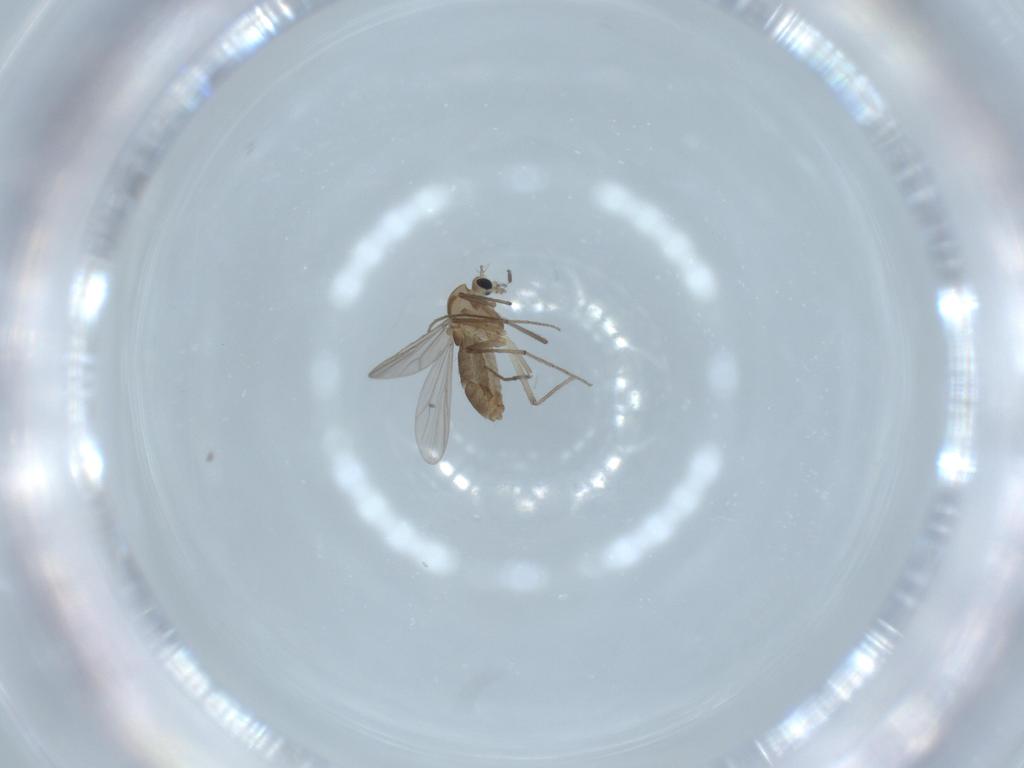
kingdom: Animalia
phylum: Arthropoda
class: Insecta
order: Diptera
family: Chironomidae
